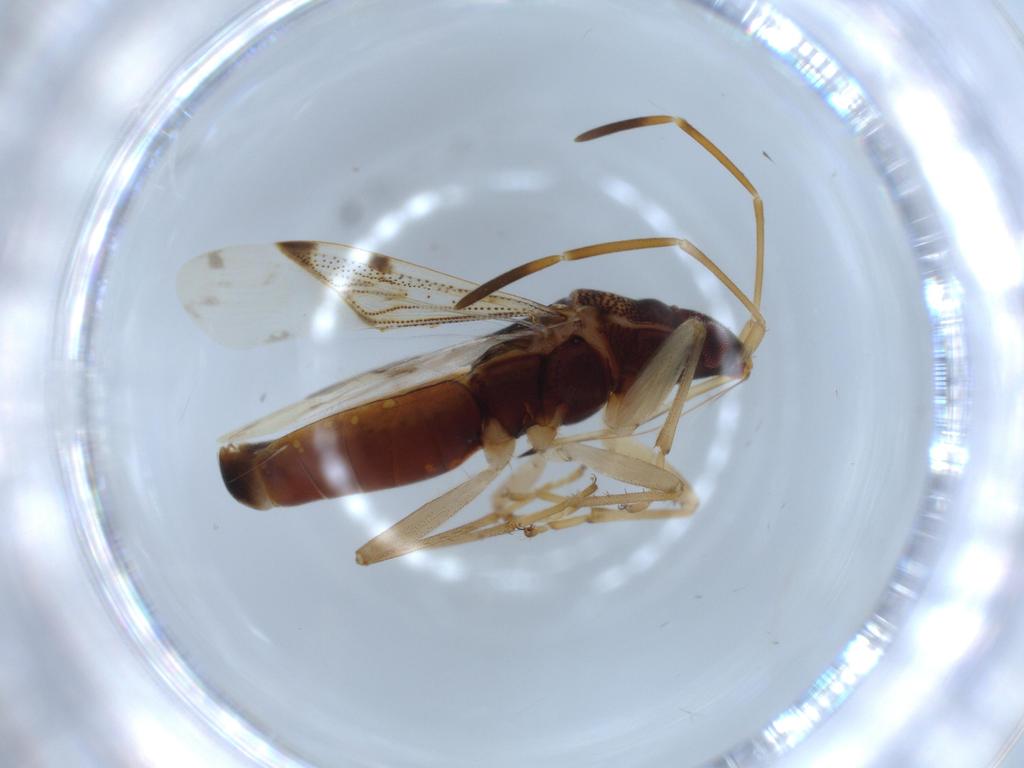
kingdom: Animalia
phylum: Arthropoda
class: Insecta
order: Hemiptera
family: Rhyparochromidae
